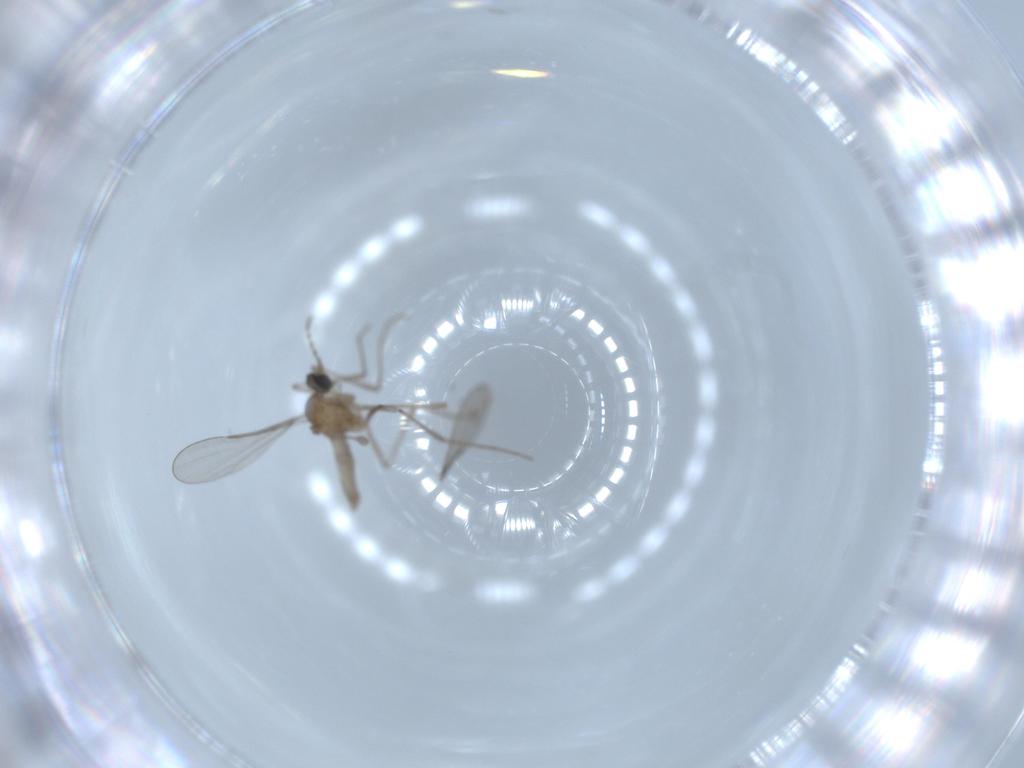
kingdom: Animalia
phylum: Arthropoda
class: Insecta
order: Diptera
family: Cecidomyiidae
